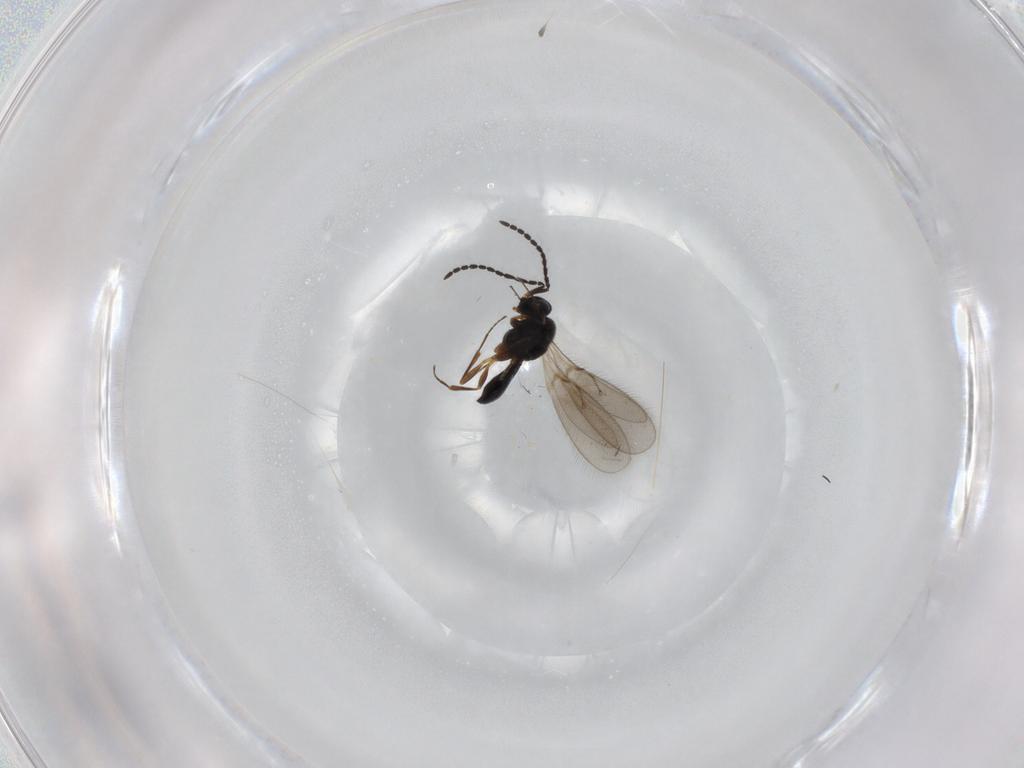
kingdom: Animalia
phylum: Arthropoda
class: Insecta
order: Hymenoptera
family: Scelionidae
